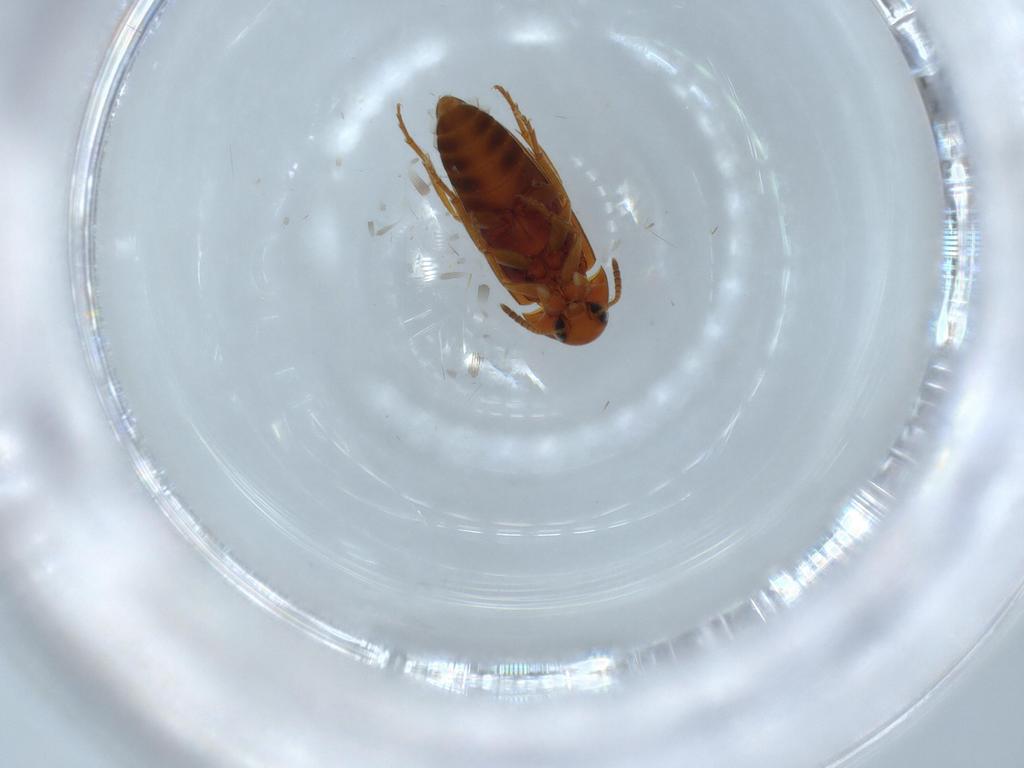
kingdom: Animalia
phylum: Arthropoda
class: Insecta
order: Coleoptera
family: Scraptiidae
